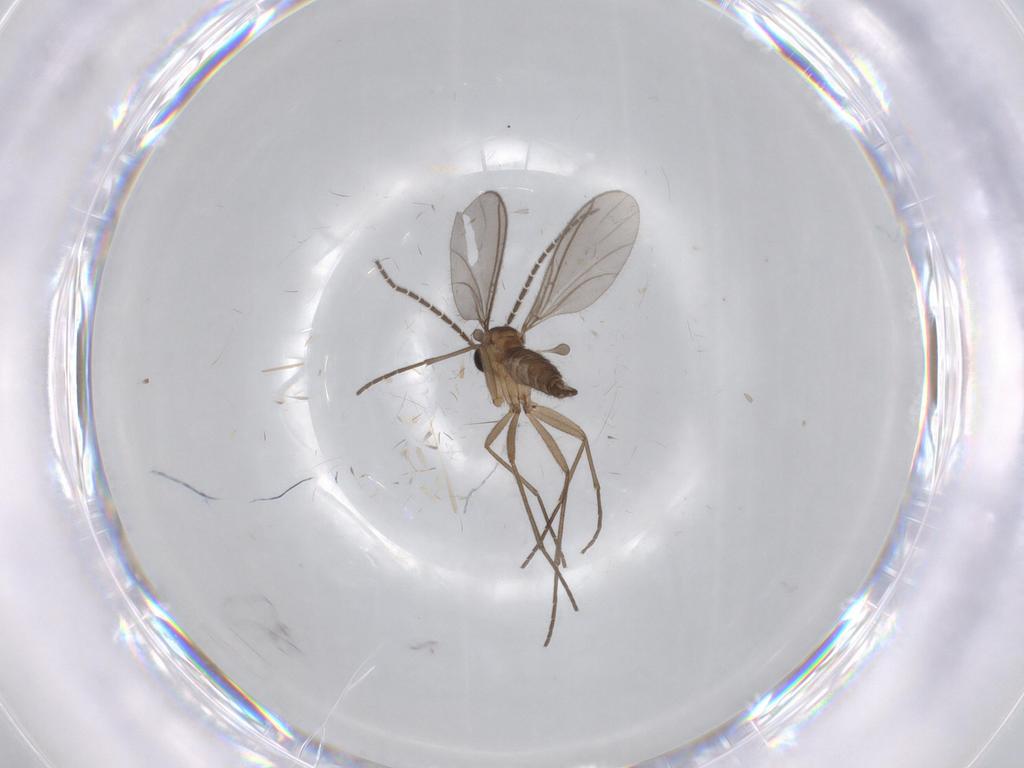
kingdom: Animalia
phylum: Arthropoda
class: Insecta
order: Diptera
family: Sciaridae
